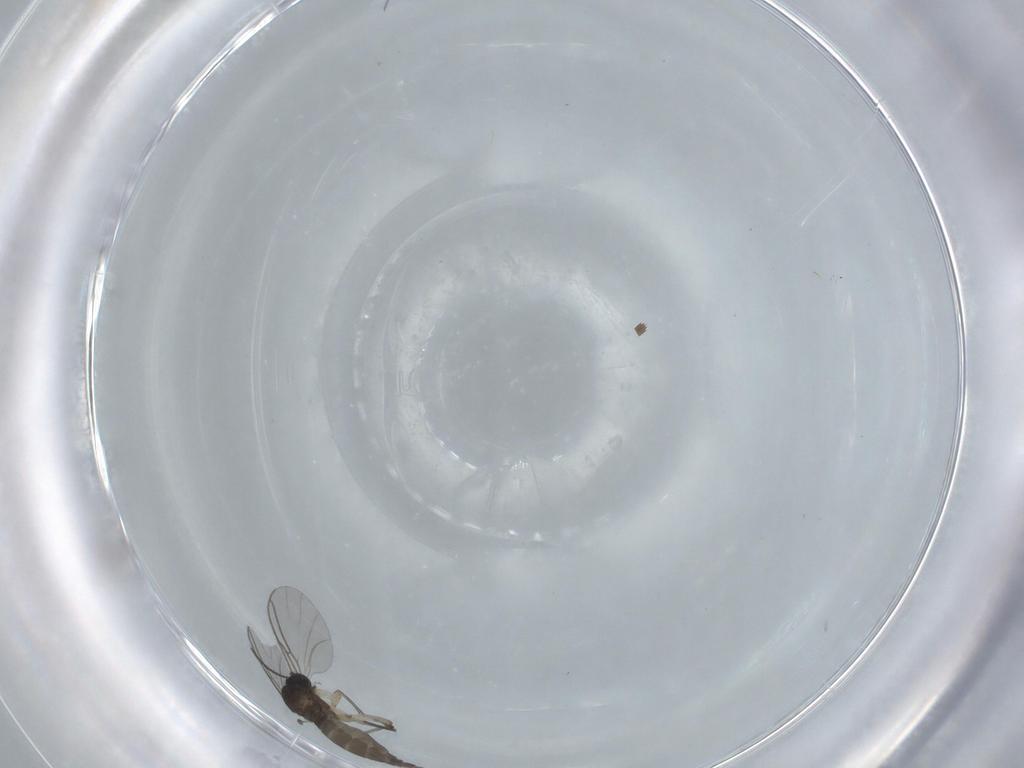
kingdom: Animalia
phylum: Arthropoda
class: Insecta
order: Diptera
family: Sciaridae
